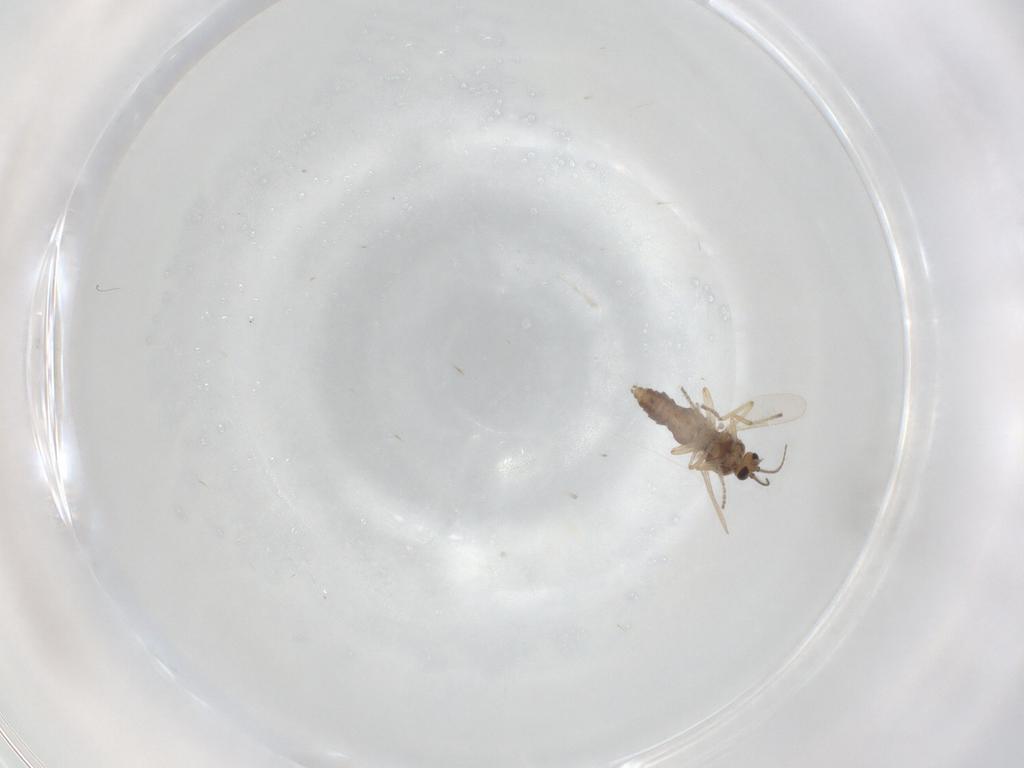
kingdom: Animalia
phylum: Arthropoda
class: Insecta
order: Diptera
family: Ceratopogonidae
